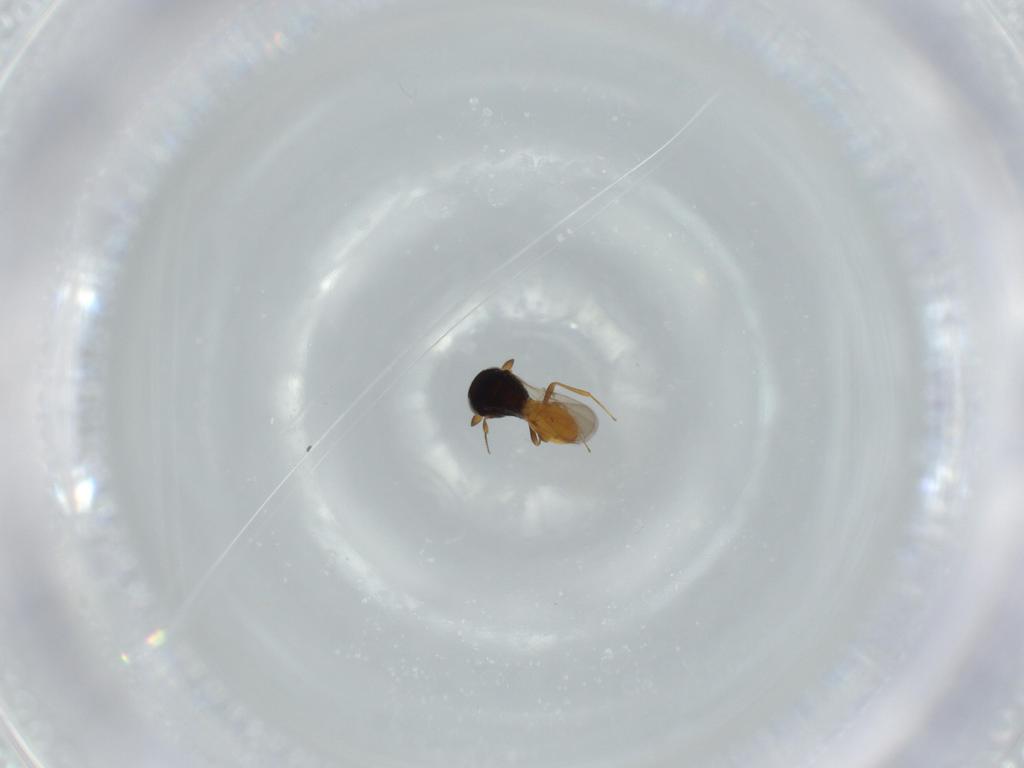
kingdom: Animalia
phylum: Arthropoda
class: Insecta
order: Hymenoptera
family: Scelionidae
